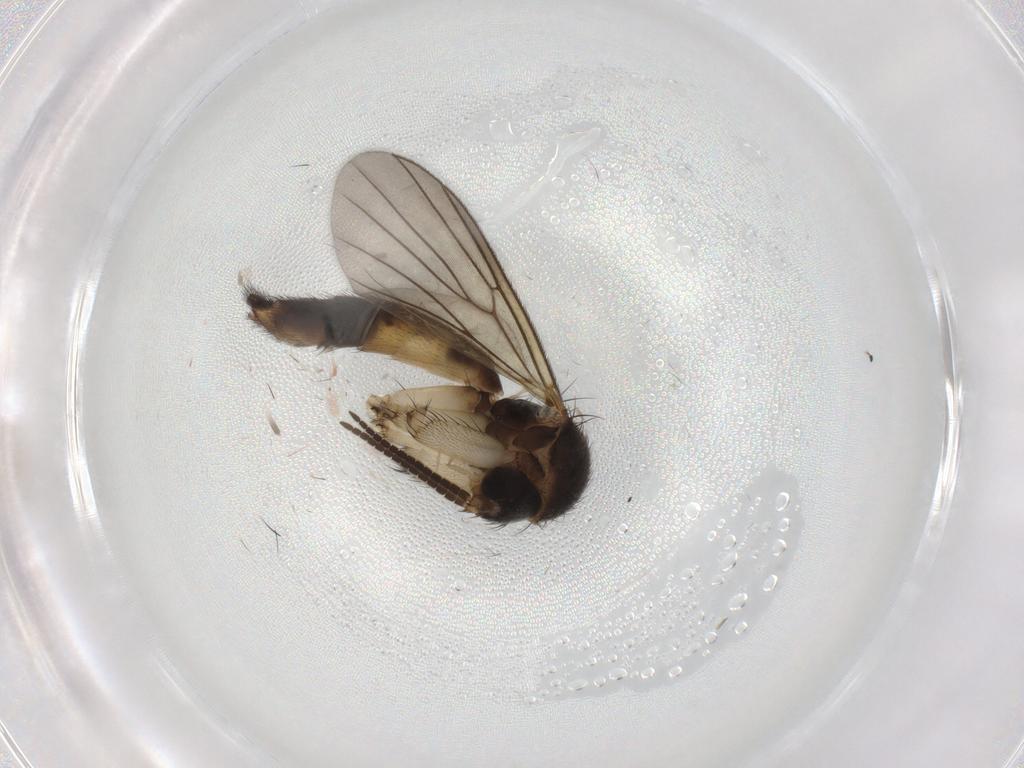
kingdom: Animalia
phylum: Arthropoda
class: Insecta
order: Diptera
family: Mycetophilidae
